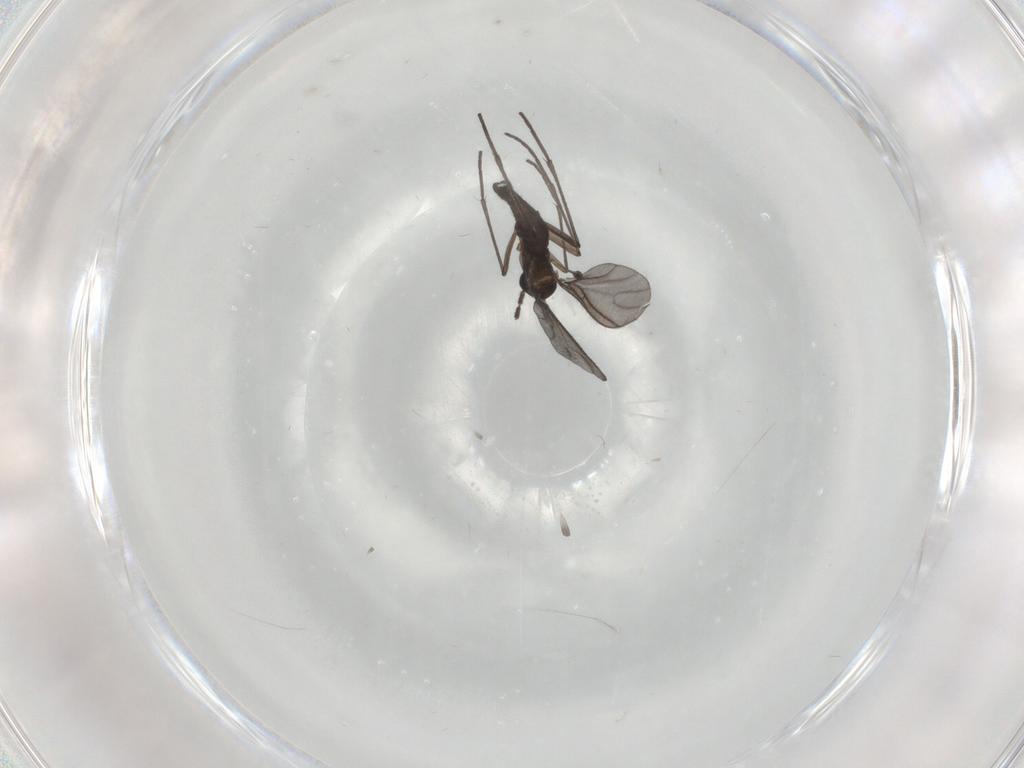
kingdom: Animalia
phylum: Arthropoda
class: Insecta
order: Diptera
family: Sciaridae
